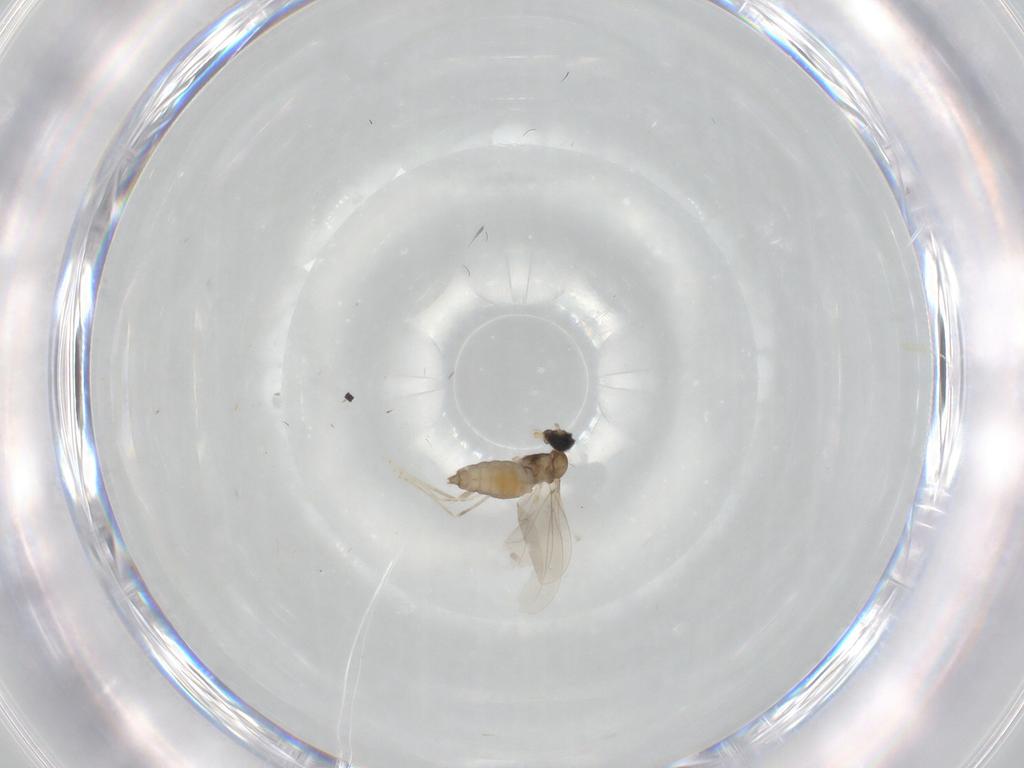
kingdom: Animalia
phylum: Arthropoda
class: Insecta
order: Diptera
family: Cecidomyiidae
